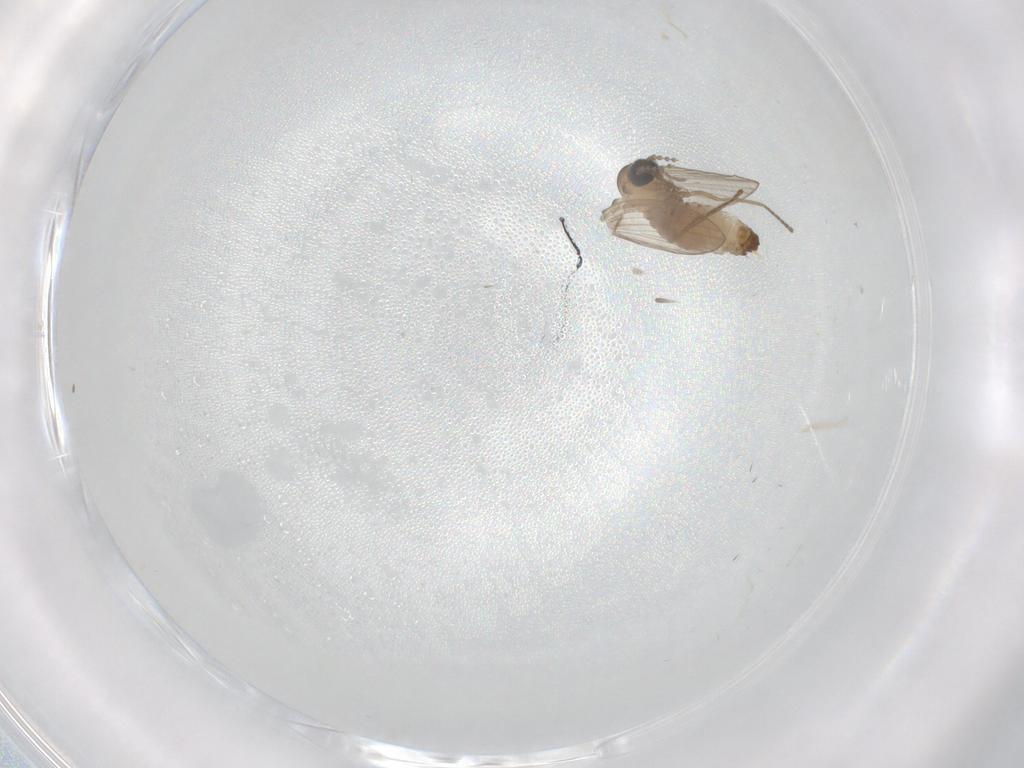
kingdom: Animalia
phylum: Arthropoda
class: Insecta
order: Diptera
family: Psychodidae
